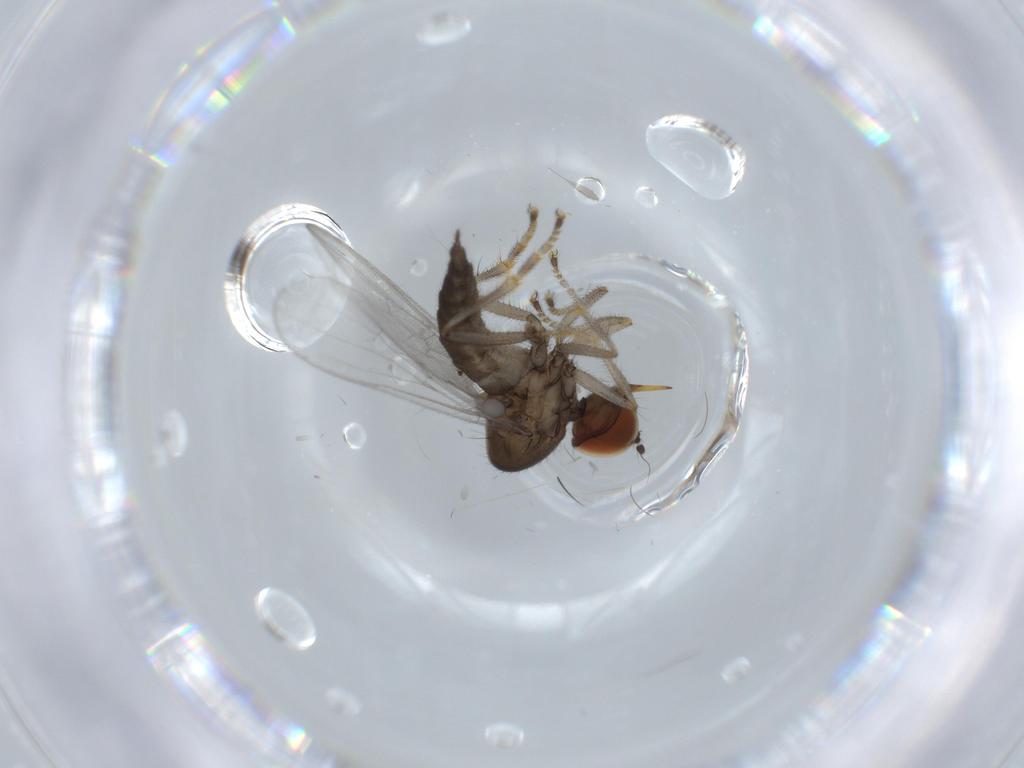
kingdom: Animalia
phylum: Arthropoda
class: Insecta
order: Diptera
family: Hybotidae
